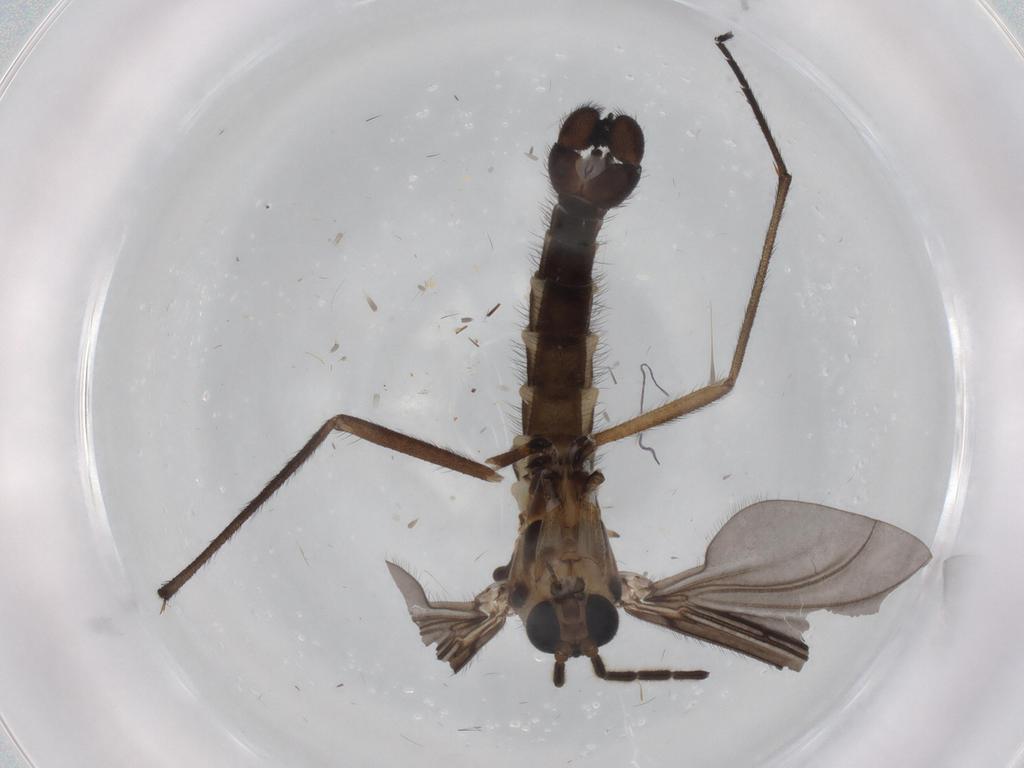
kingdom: Animalia
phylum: Arthropoda
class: Insecta
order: Diptera
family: Sciaridae
